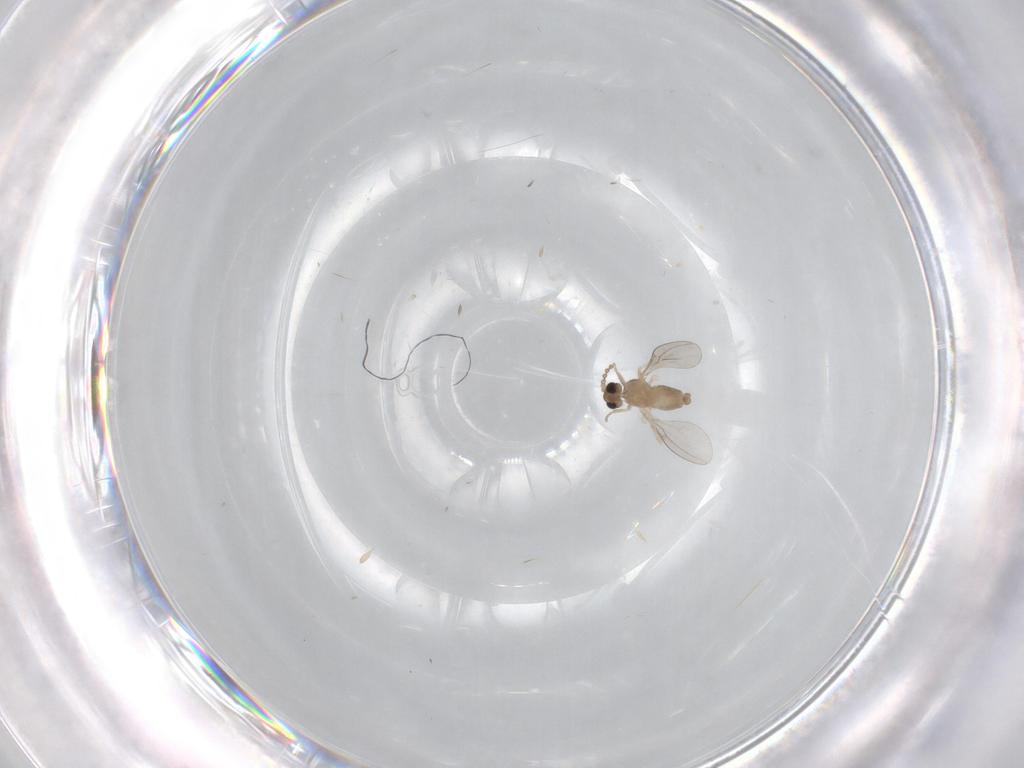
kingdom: Animalia
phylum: Arthropoda
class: Insecta
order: Diptera
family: Cecidomyiidae
